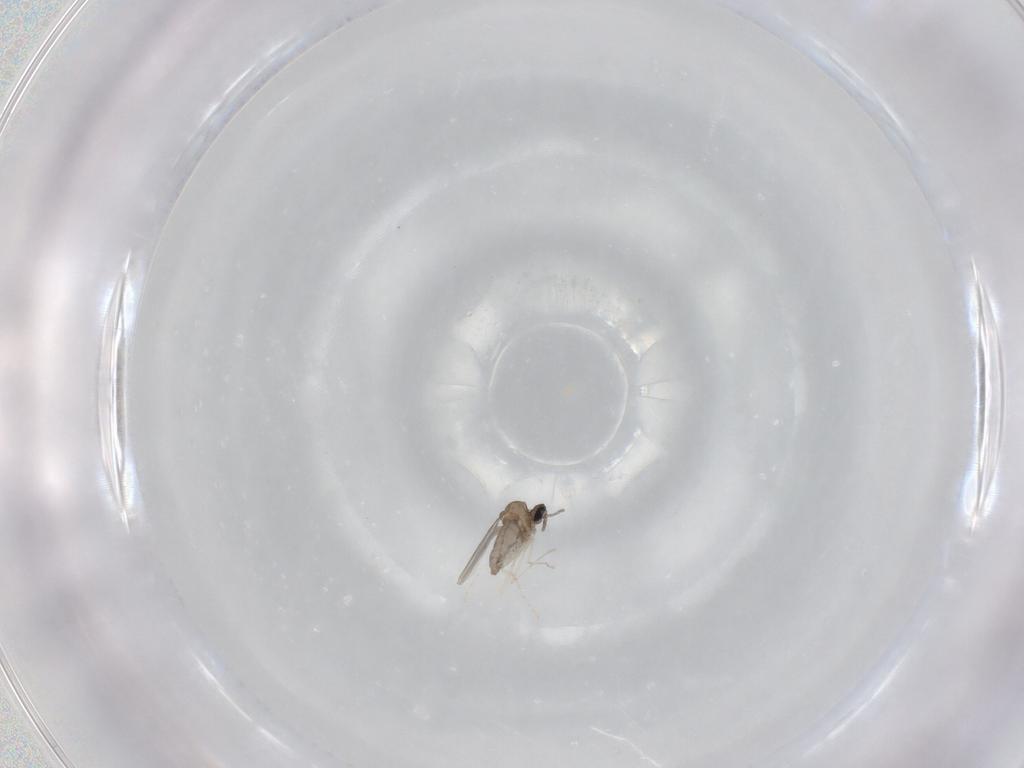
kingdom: Animalia
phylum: Arthropoda
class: Insecta
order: Diptera
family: Cecidomyiidae
